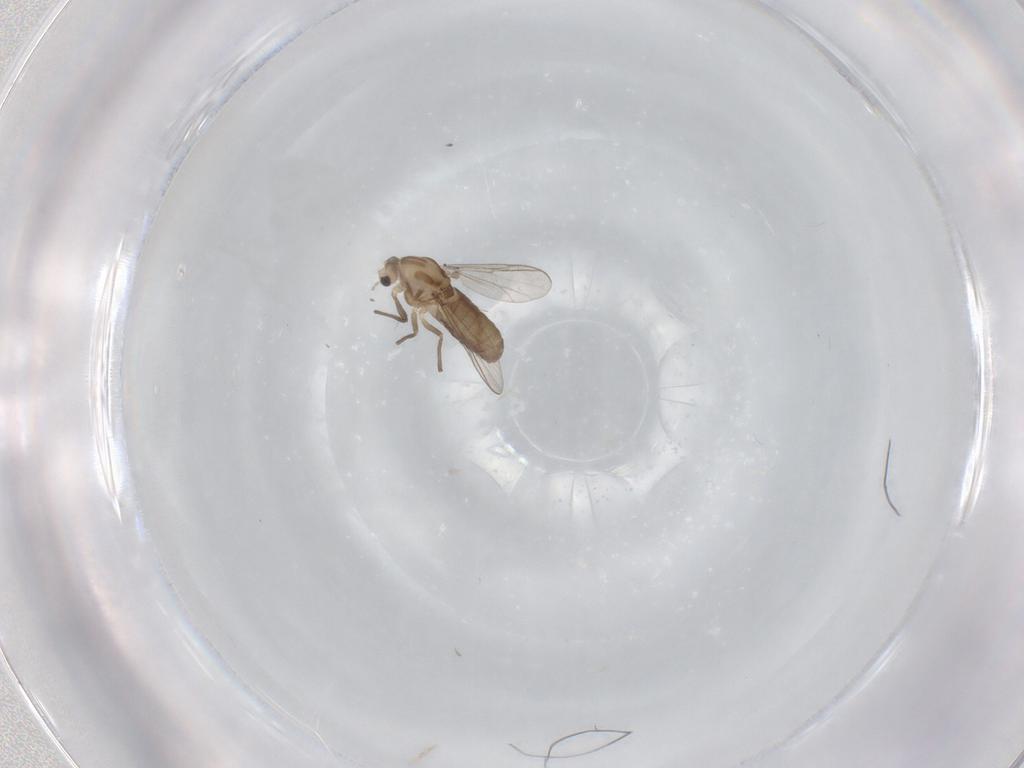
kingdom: Animalia
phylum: Arthropoda
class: Insecta
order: Diptera
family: Chironomidae
